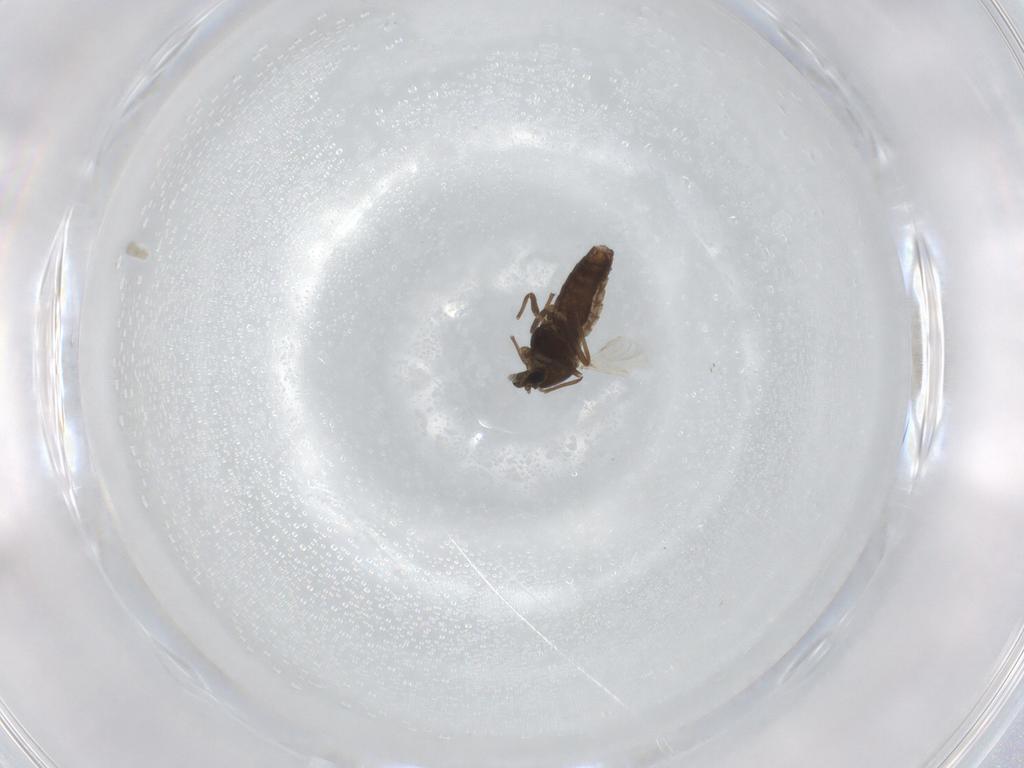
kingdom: Animalia
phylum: Arthropoda
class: Insecta
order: Diptera
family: Chironomidae
